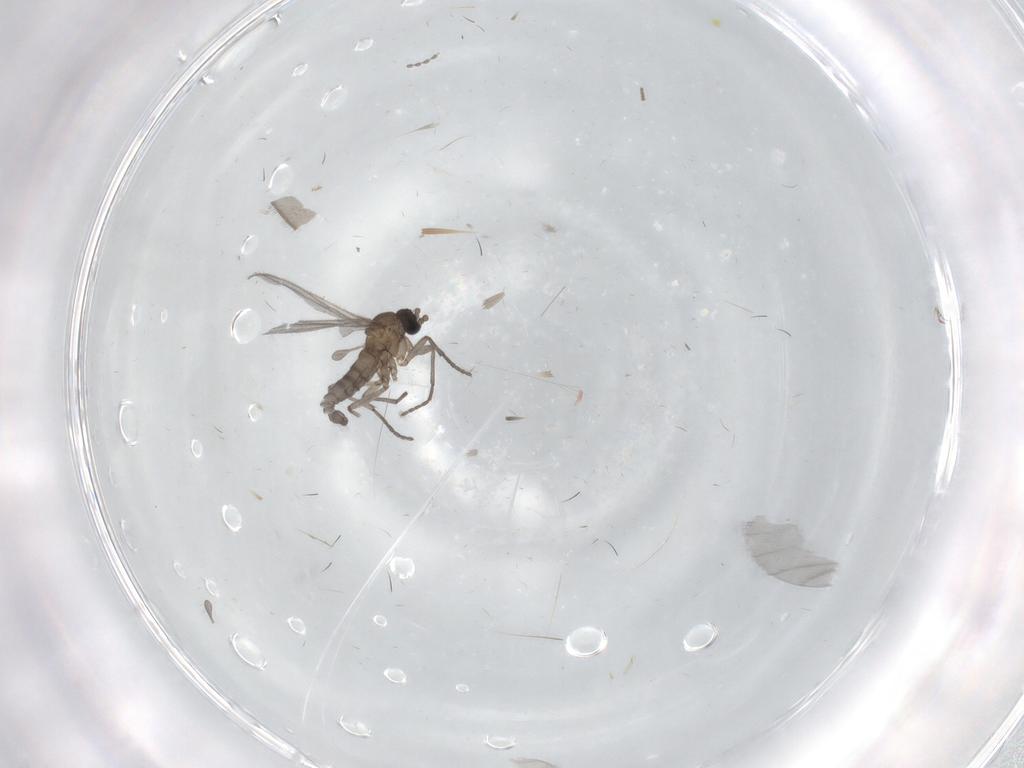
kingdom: Animalia
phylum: Arthropoda
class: Insecta
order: Diptera
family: Sciaridae
